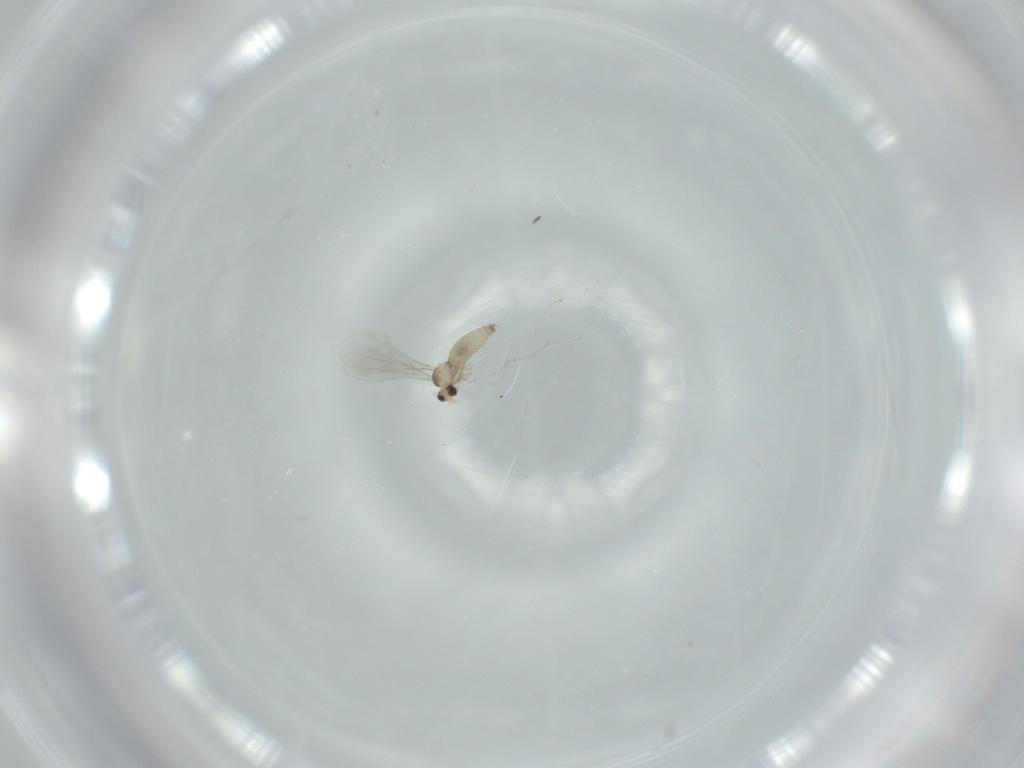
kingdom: Animalia
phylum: Arthropoda
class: Insecta
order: Diptera
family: Cecidomyiidae
